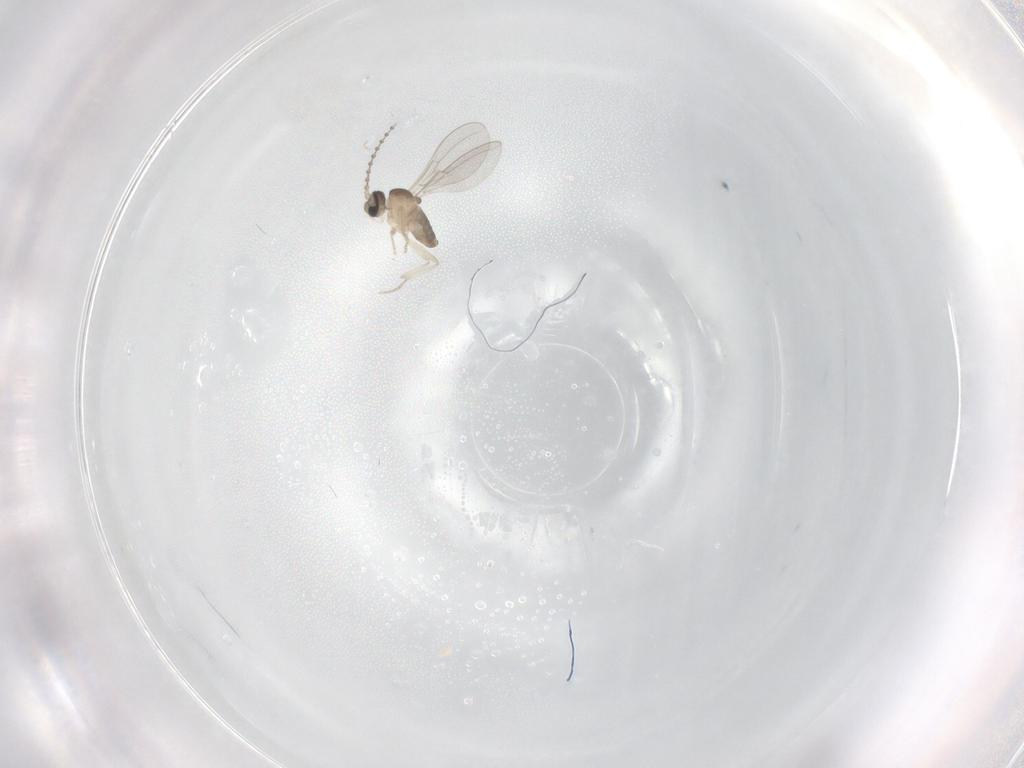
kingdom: Animalia
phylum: Arthropoda
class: Insecta
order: Diptera
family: Cecidomyiidae
